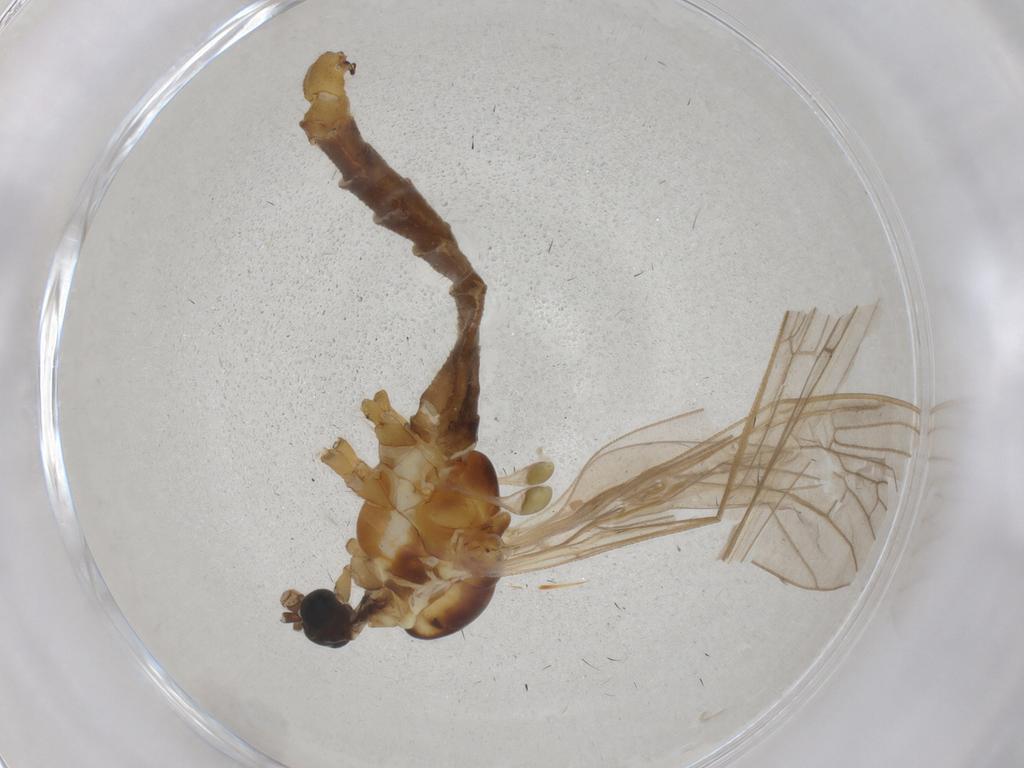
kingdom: Animalia
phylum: Arthropoda
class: Insecta
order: Diptera
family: Limoniidae
